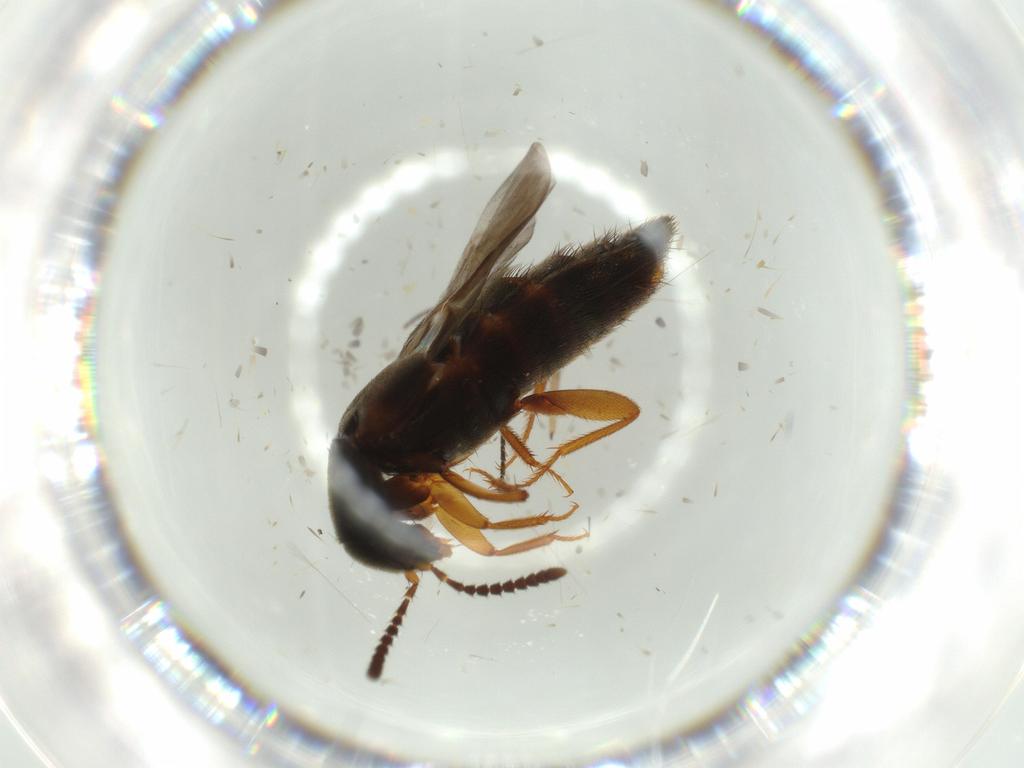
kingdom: Animalia
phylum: Arthropoda
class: Insecta
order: Coleoptera
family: Staphylinidae
